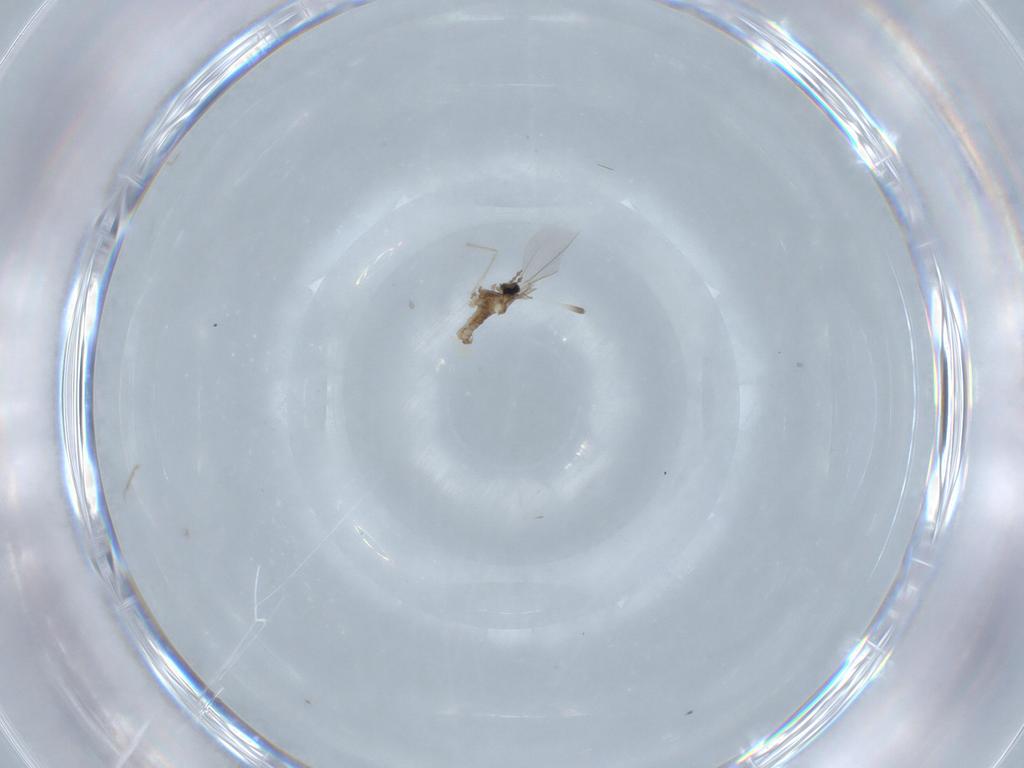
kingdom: Animalia
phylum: Arthropoda
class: Insecta
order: Diptera
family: Cecidomyiidae
